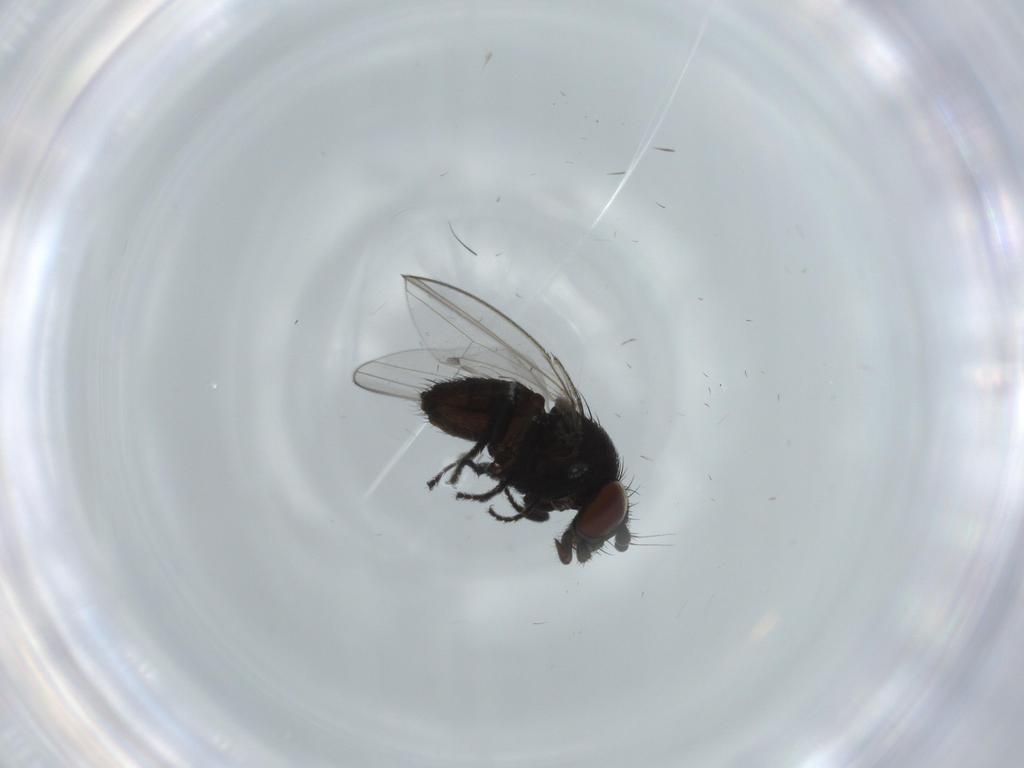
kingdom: Animalia
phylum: Arthropoda
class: Insecta
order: Diptera
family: Milichiidae
